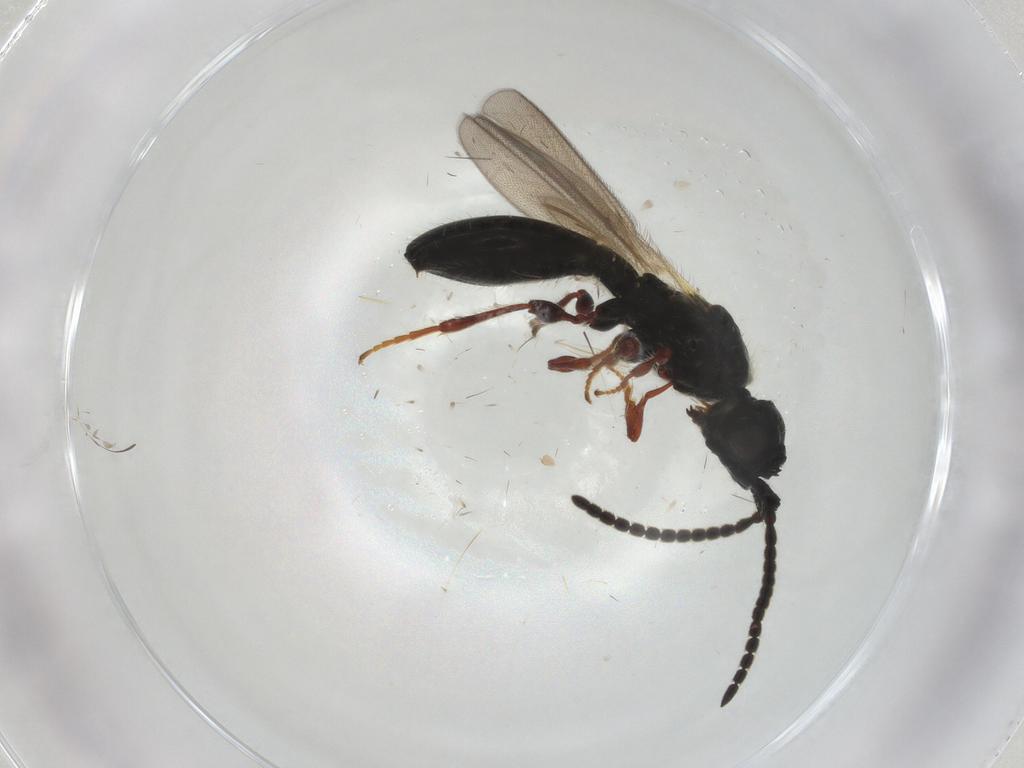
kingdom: Animalia
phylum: Arthropoda
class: Insecta
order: Hymenoptera
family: Diapriidae
